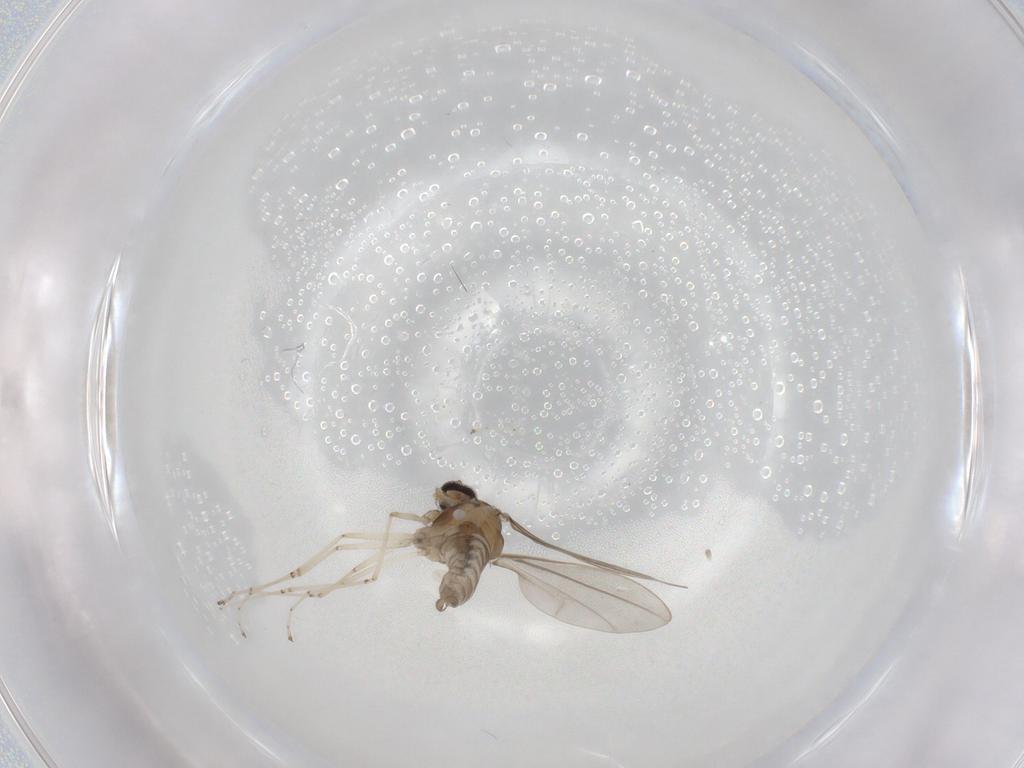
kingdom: Animalia
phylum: Arthropoda
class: Insecta
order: Diptera
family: Cecidomyiidae
